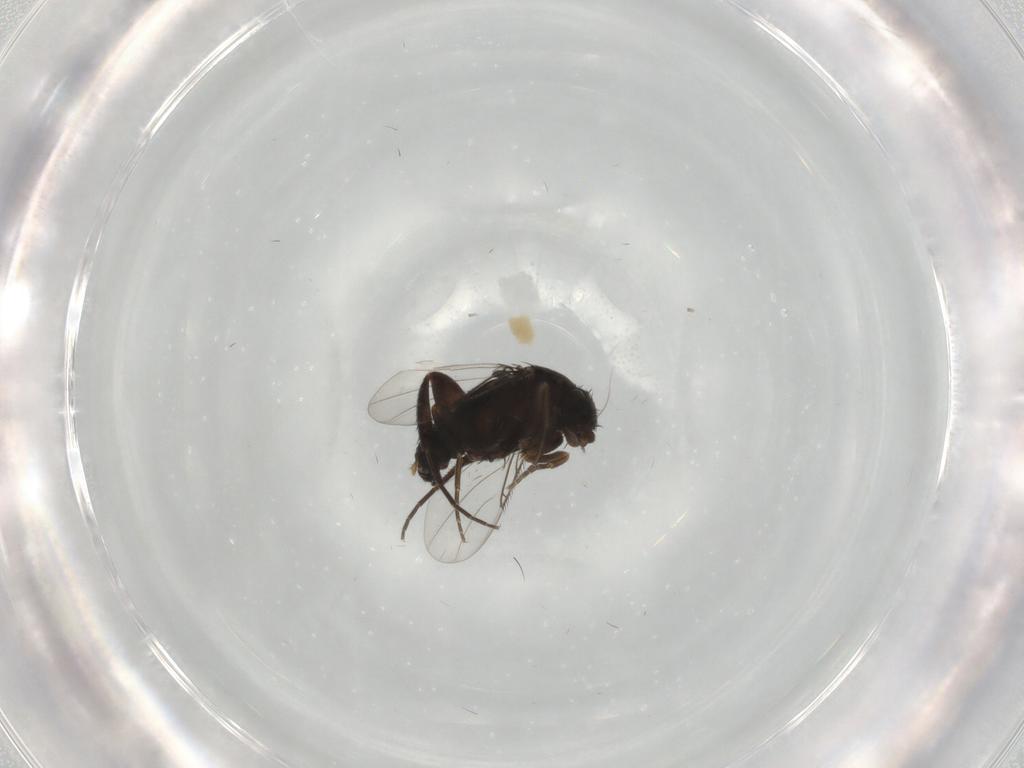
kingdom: Animalia
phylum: Arthropoda
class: Insecta
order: Diptera
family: Phoridae
